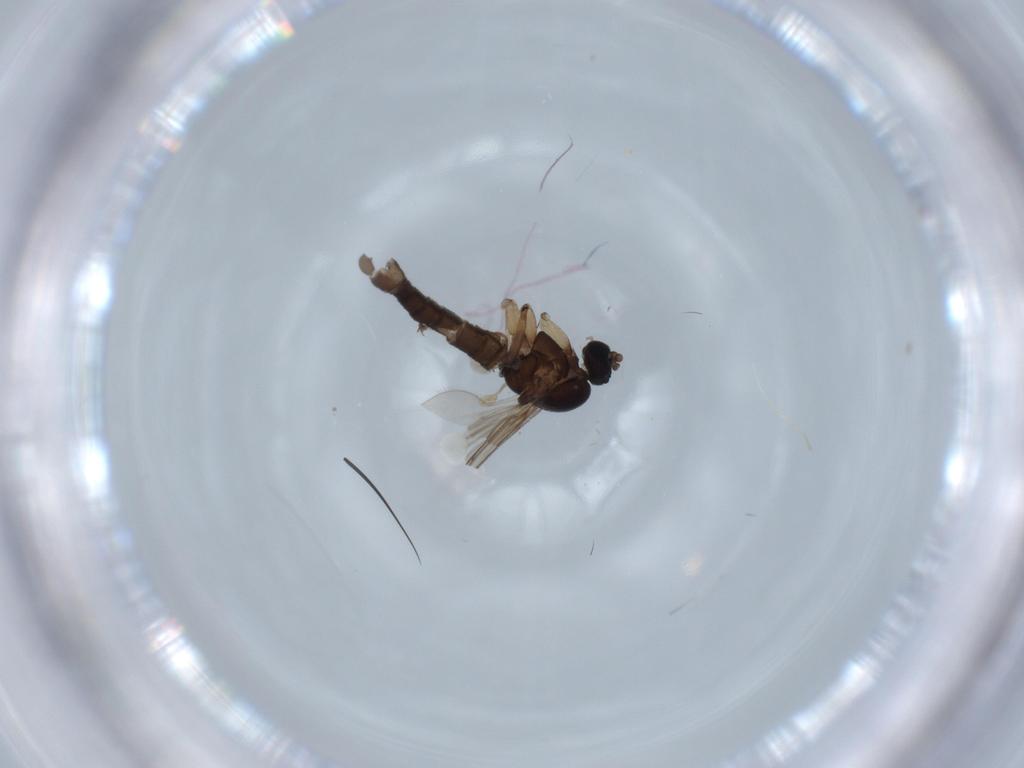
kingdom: Animalia
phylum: Arthropoda
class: Insecta
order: Diptera
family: Sciaridae
